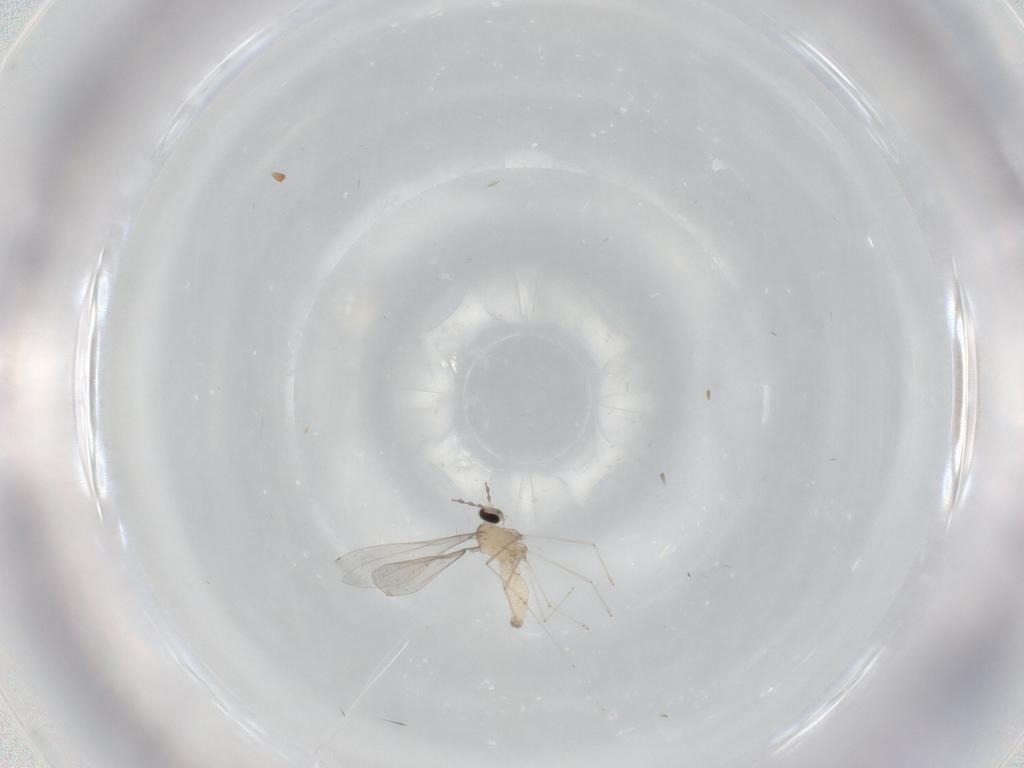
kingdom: Animalia
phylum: Arthropoda
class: Insecta
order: Diptera
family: Cecidomyiidae
